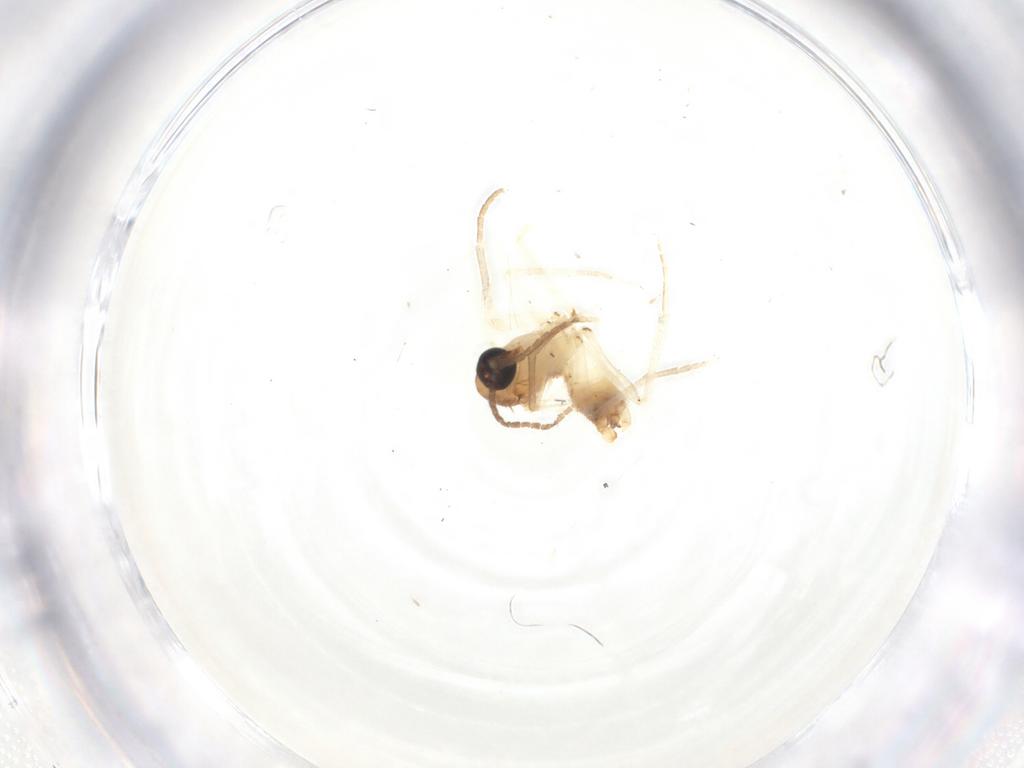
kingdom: Animalia
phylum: Arthropoda
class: Insecta
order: Diptera
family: Sciaridae
